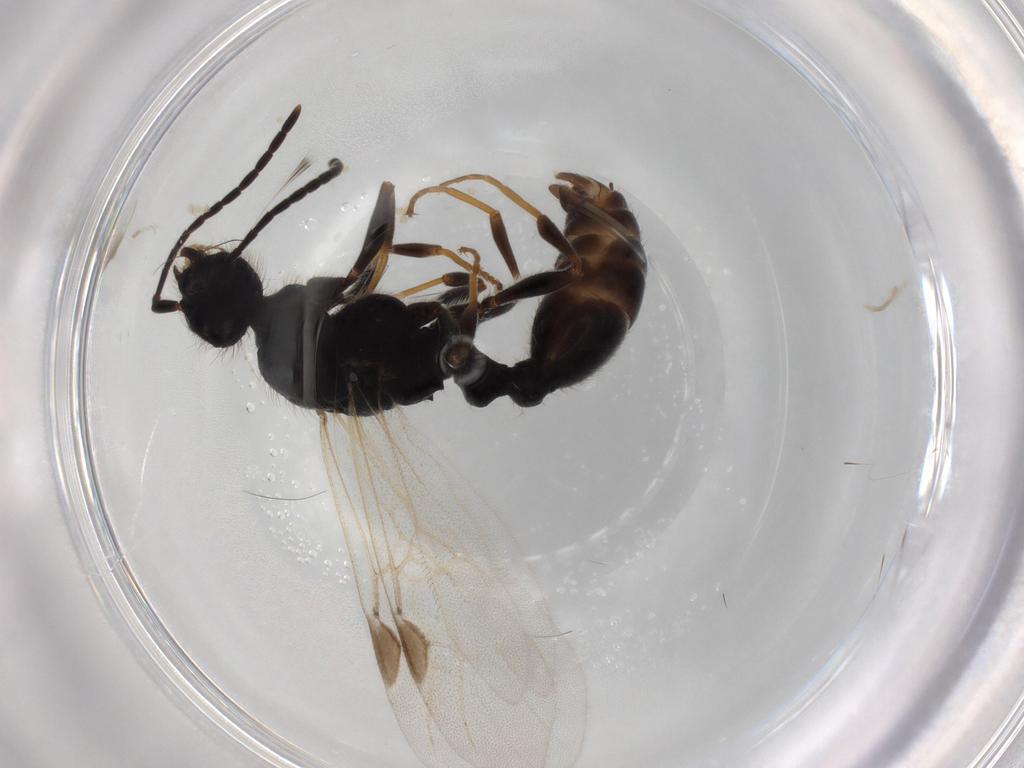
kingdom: Animalia
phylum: Arthropoda
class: Insecta
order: Hymenoptera
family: Formicidae
